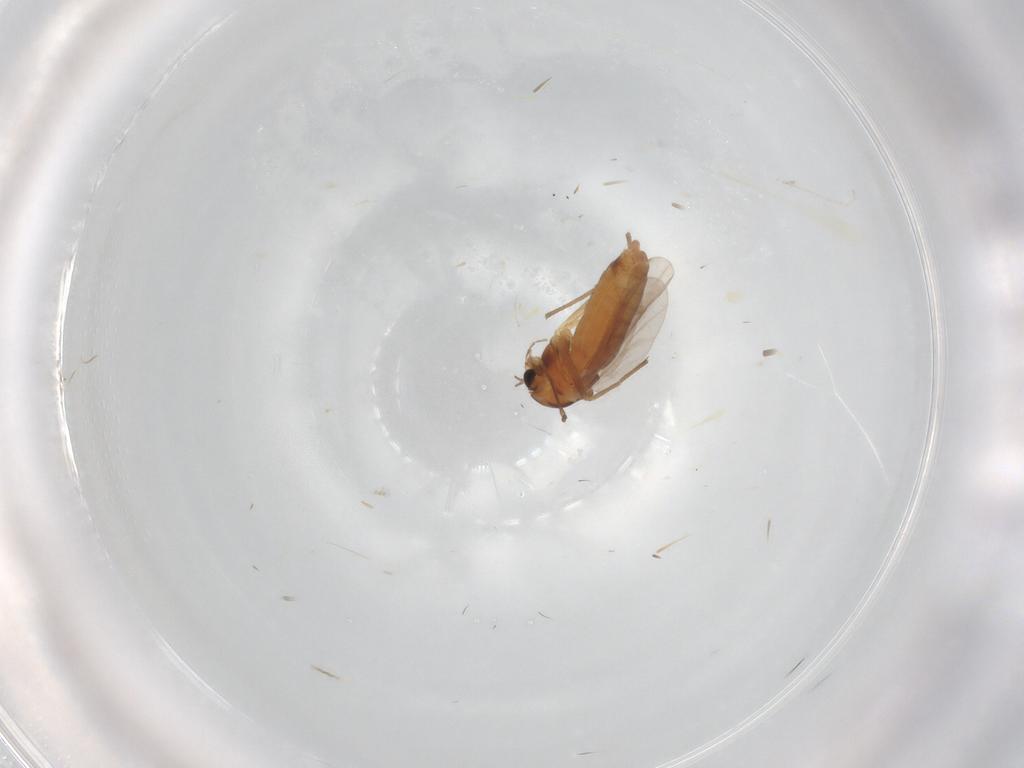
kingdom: Animalia
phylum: Arthropoda
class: Insecta
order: Diptera
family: Chironomidae
